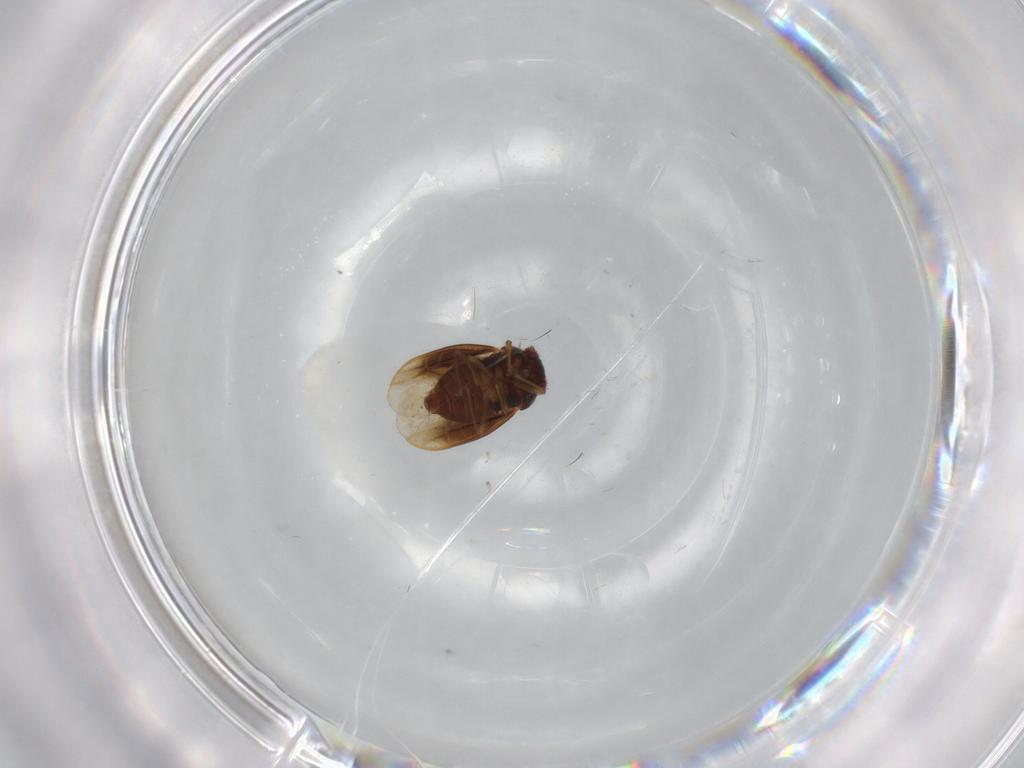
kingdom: Animalia
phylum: Arthropoda
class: Insecta
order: Hemiptera
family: Schizopteridae
